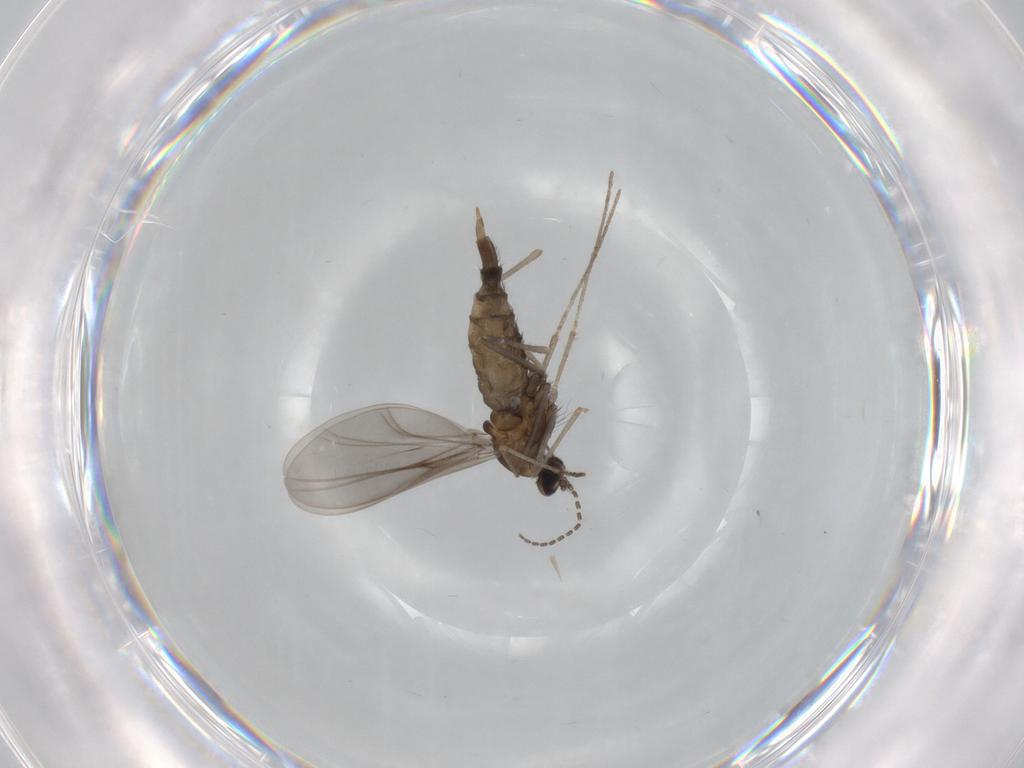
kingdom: Animalia
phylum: Arthropoda
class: Insecta
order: Diptera
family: Cecidomyiidae
